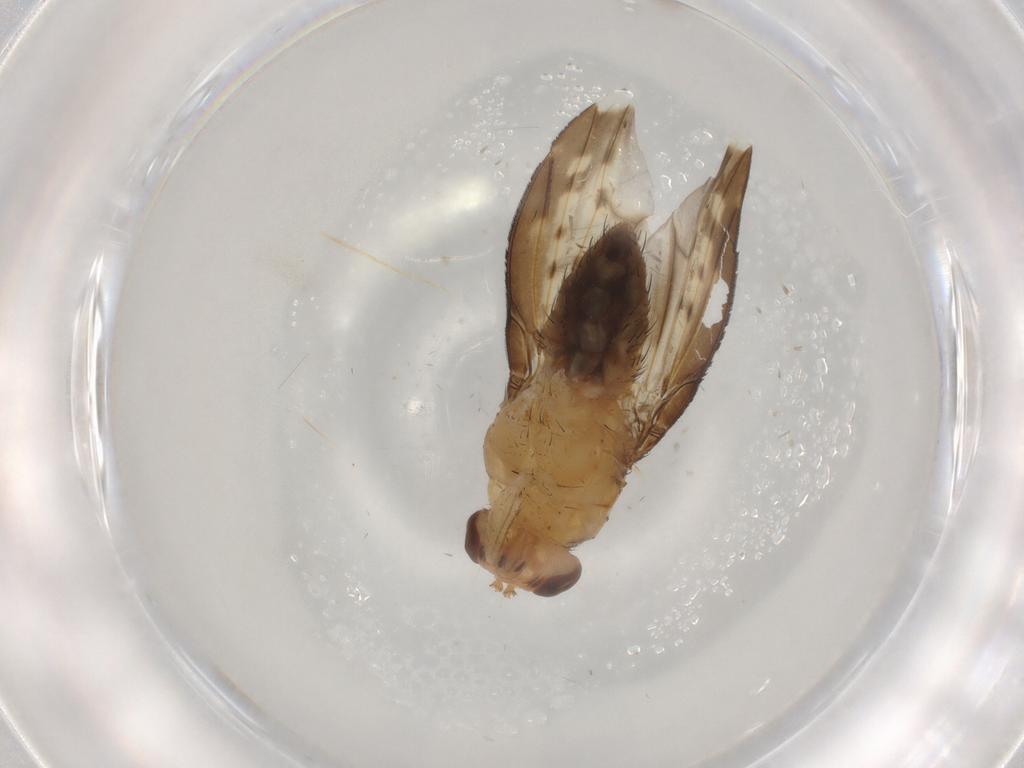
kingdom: Animalia
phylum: Arthropoda
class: Insecta
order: Diptera
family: Muscidae
